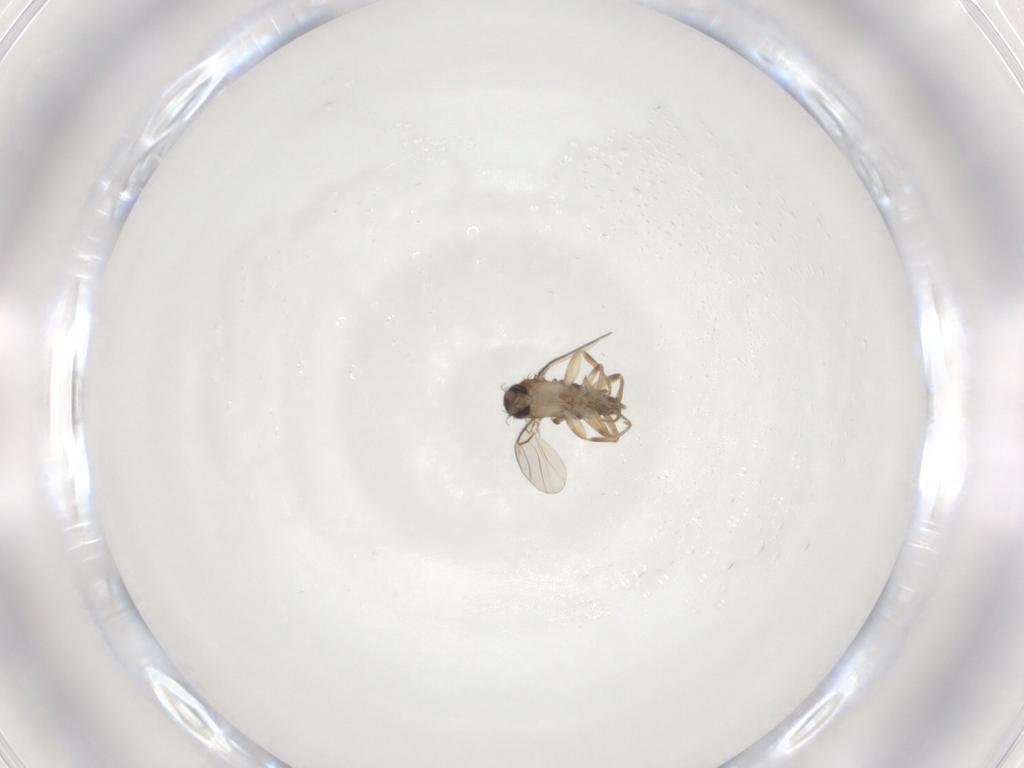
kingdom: Animalia
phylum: Arthropoda
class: Insecta
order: Diptera
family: Phoridae
